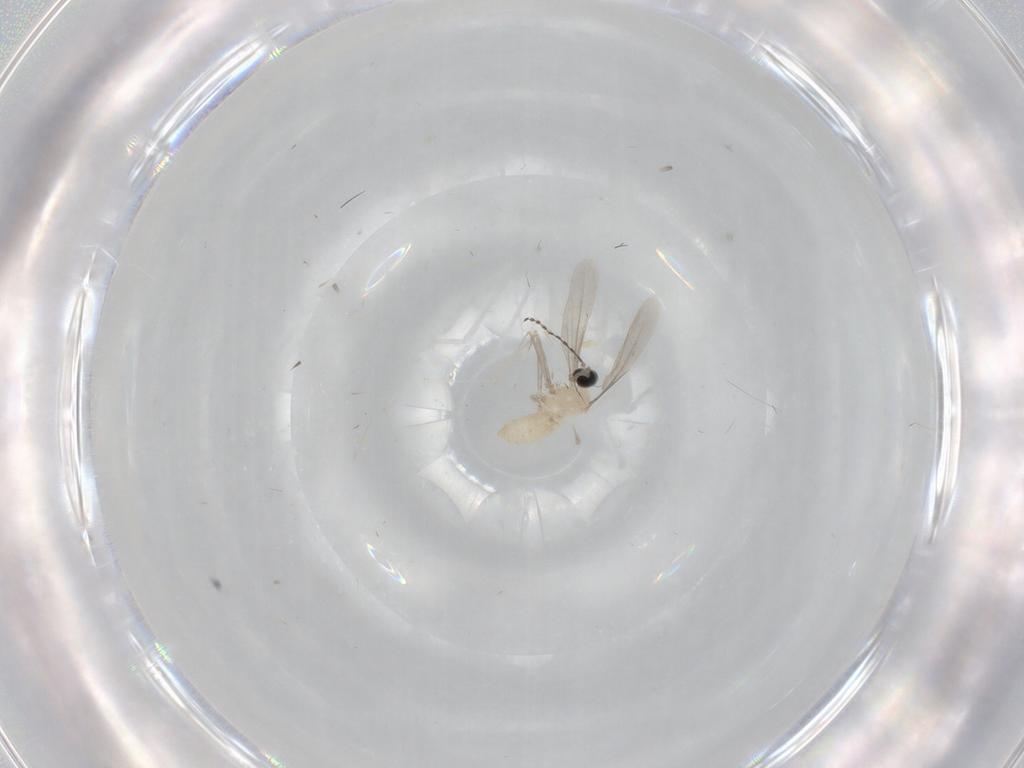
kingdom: Animalia
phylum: Arthropoda
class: Insecta
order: Diptera
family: Cecidomyiidae
